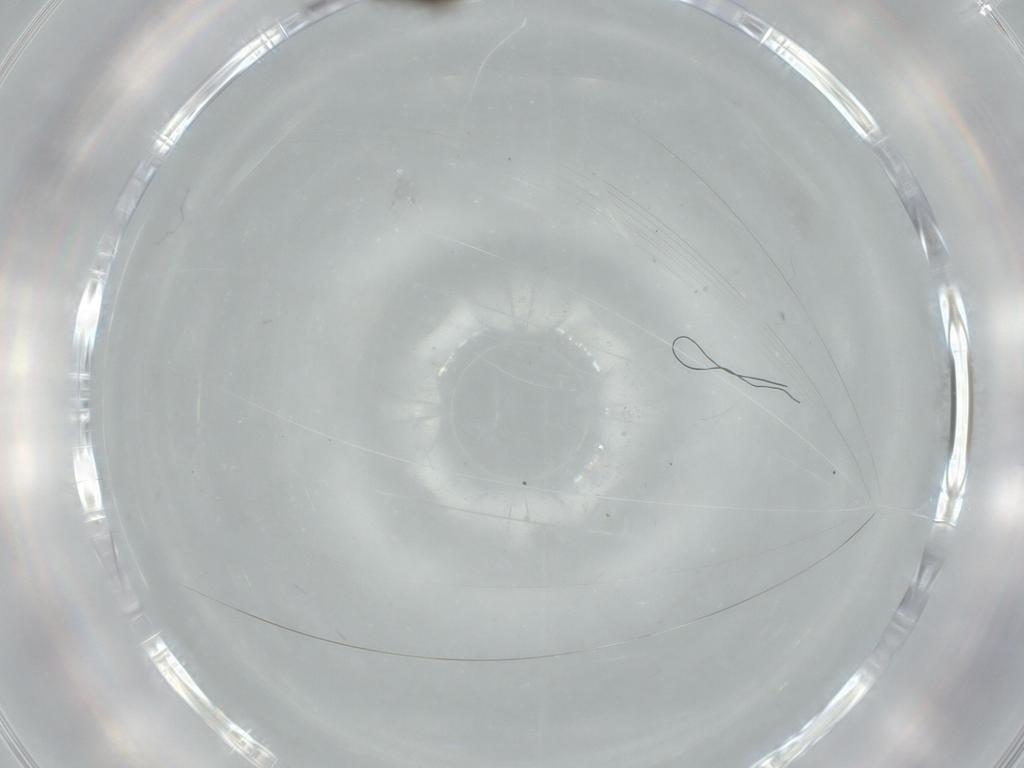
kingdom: Animalia
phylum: Arthropoda
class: Insecta
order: Diptera
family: Psychodidae
